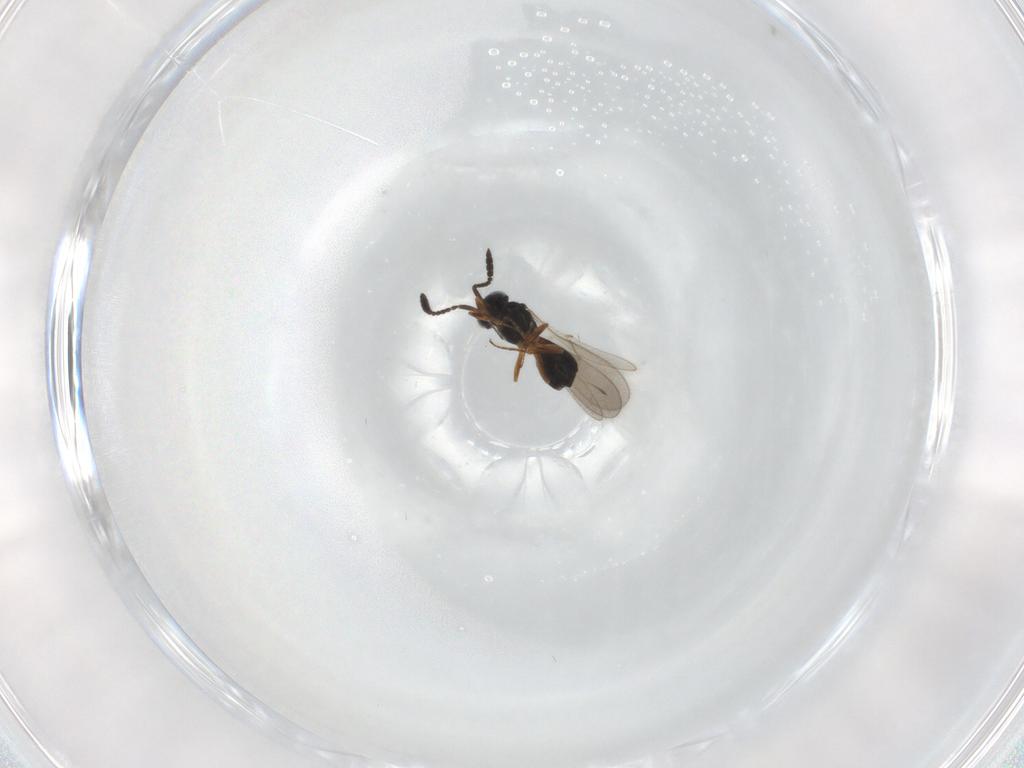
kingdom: Animalia
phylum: Arthropoda
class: Insecta
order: Hymenoptera
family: Scelionidae
